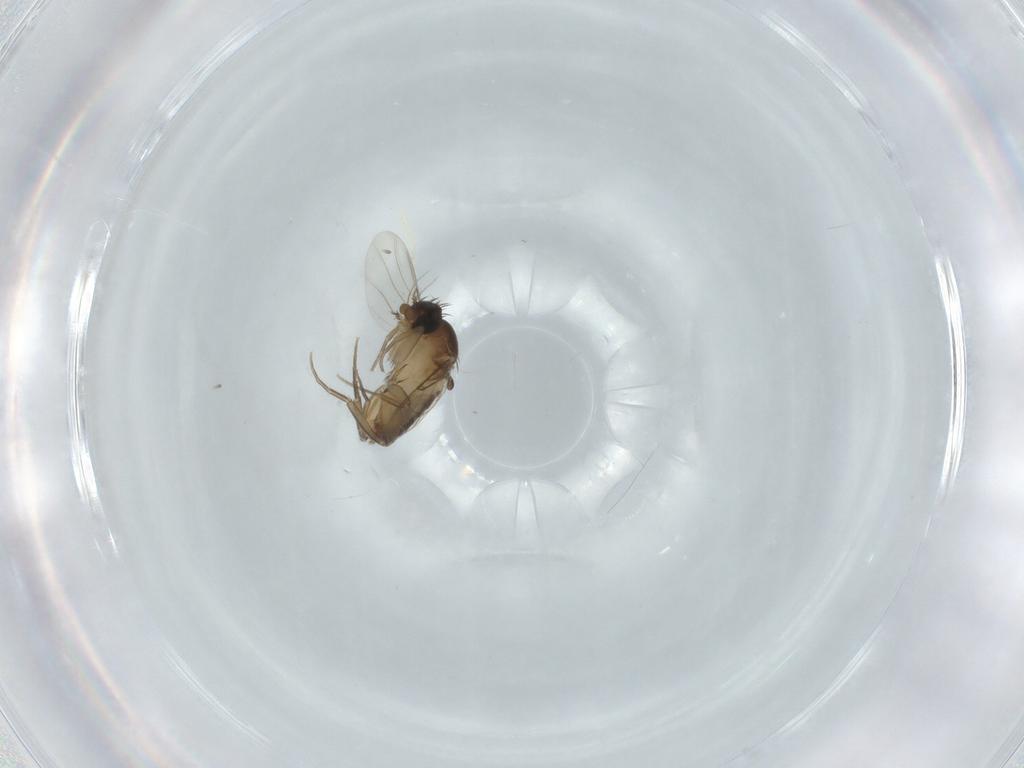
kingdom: Animalia
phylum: Arthropoda
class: Insecta
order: Diptera
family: Phoridae
